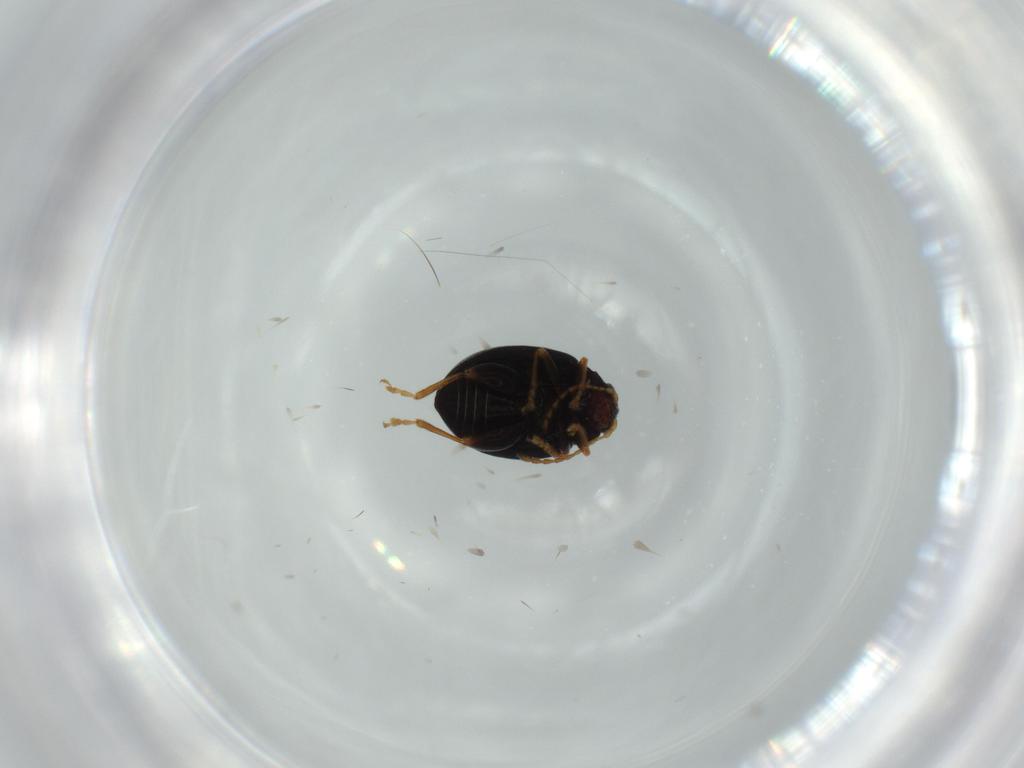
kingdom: Animalia
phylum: Arthropoda
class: Insecta
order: Coleoptera
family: Chrysomelidae
